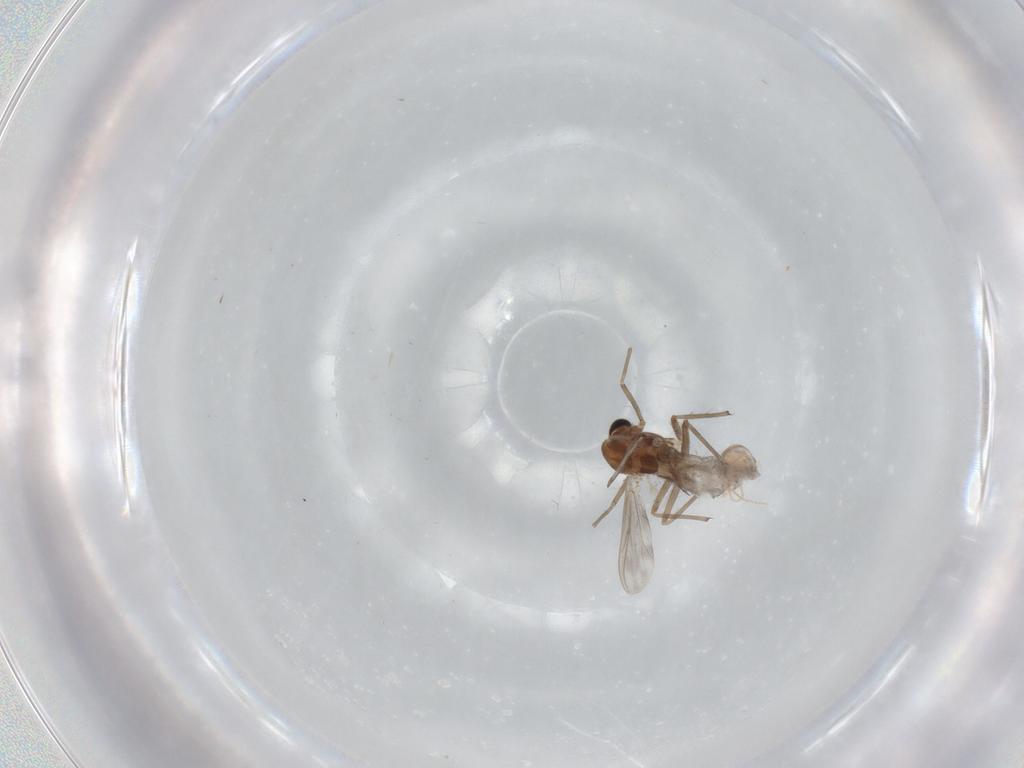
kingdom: Animalia
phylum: Arthropoda
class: Insecta
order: Diptera
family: Chironomidae
